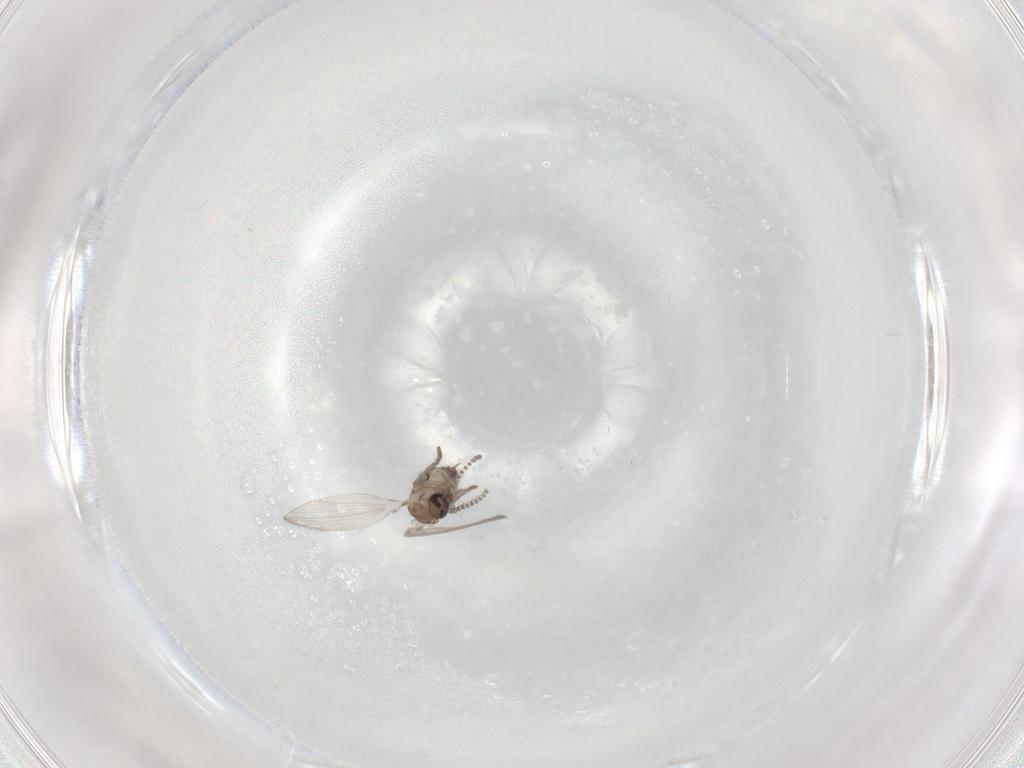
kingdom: Animalia
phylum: Arthropoda
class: Insecta
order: Diptera
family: Psychodidae
